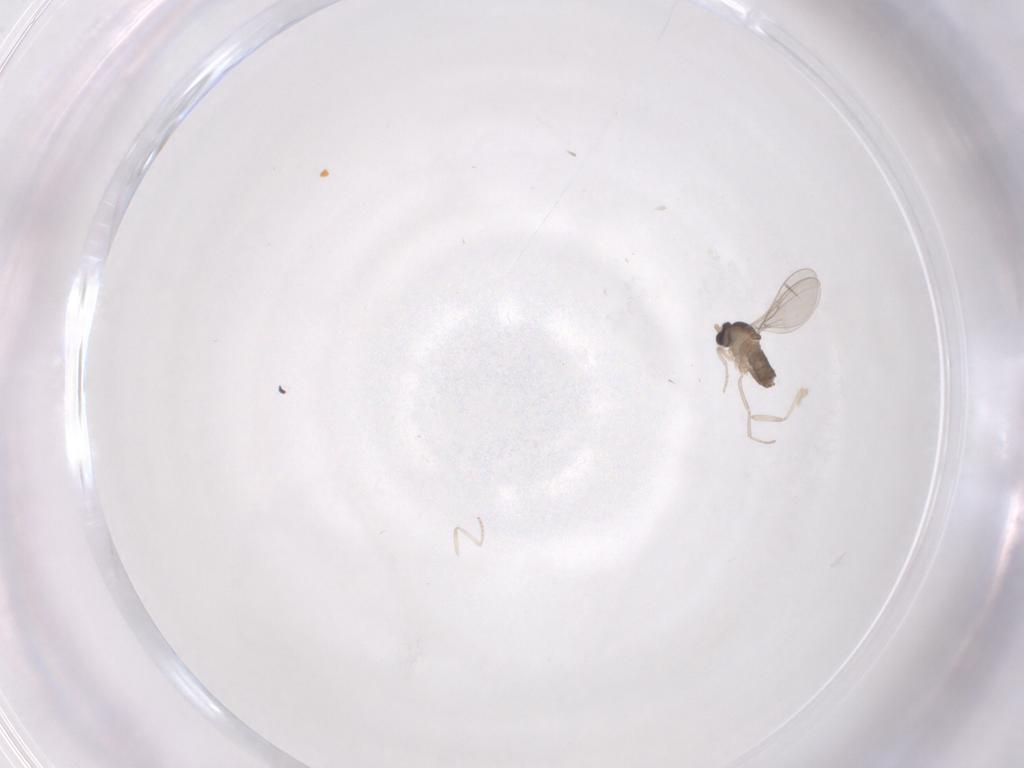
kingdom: Animalia
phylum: Arthropoda
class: Insecta
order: Diptera
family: Cecidomyiidae
